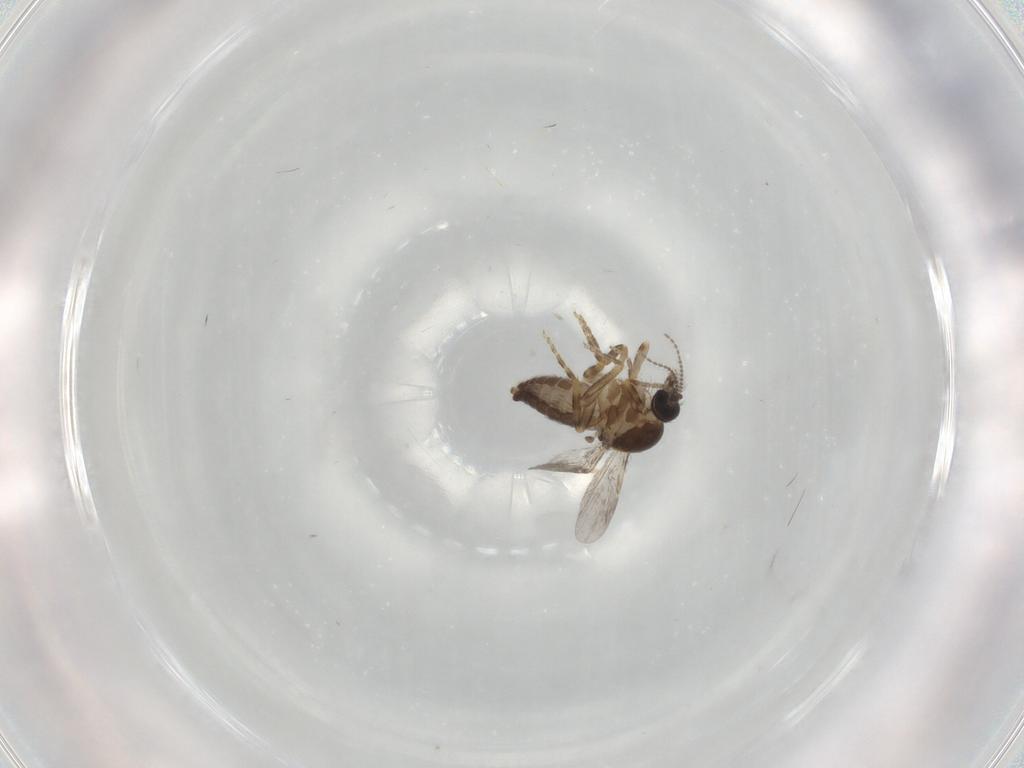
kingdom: Animalia
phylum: Arthropoda
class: Insecta
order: Diptera
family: Ceratopogonidae
